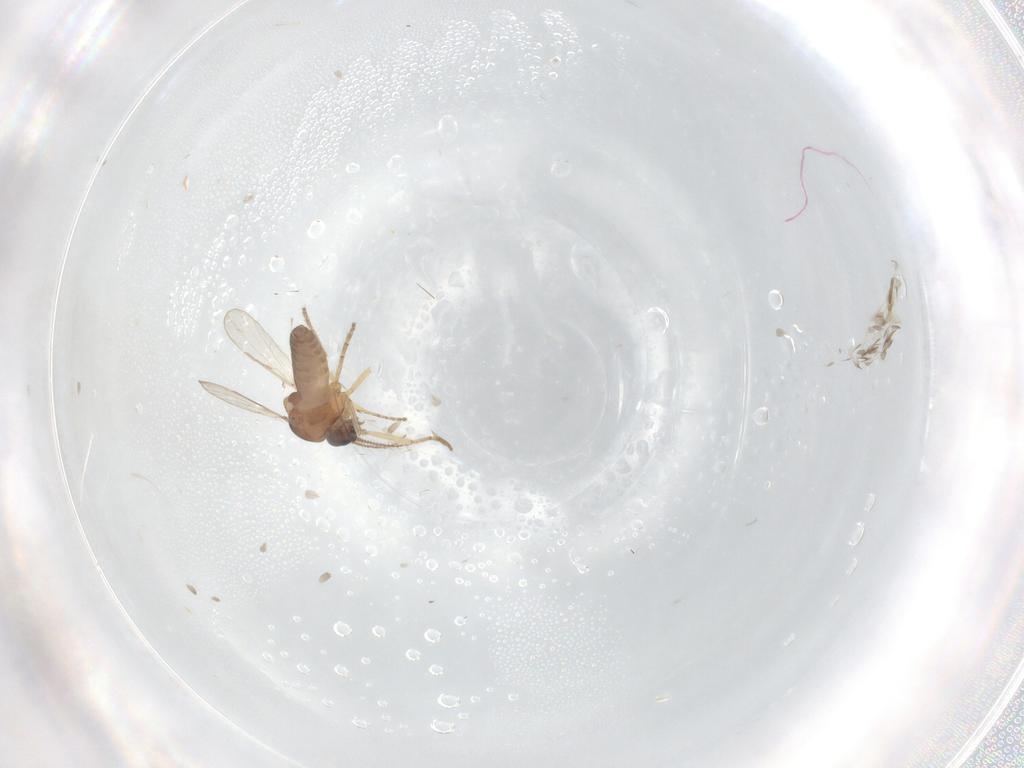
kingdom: Animalia
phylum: Arthropoda
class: Insecta
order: Diptera
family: Ceratopogonidae
